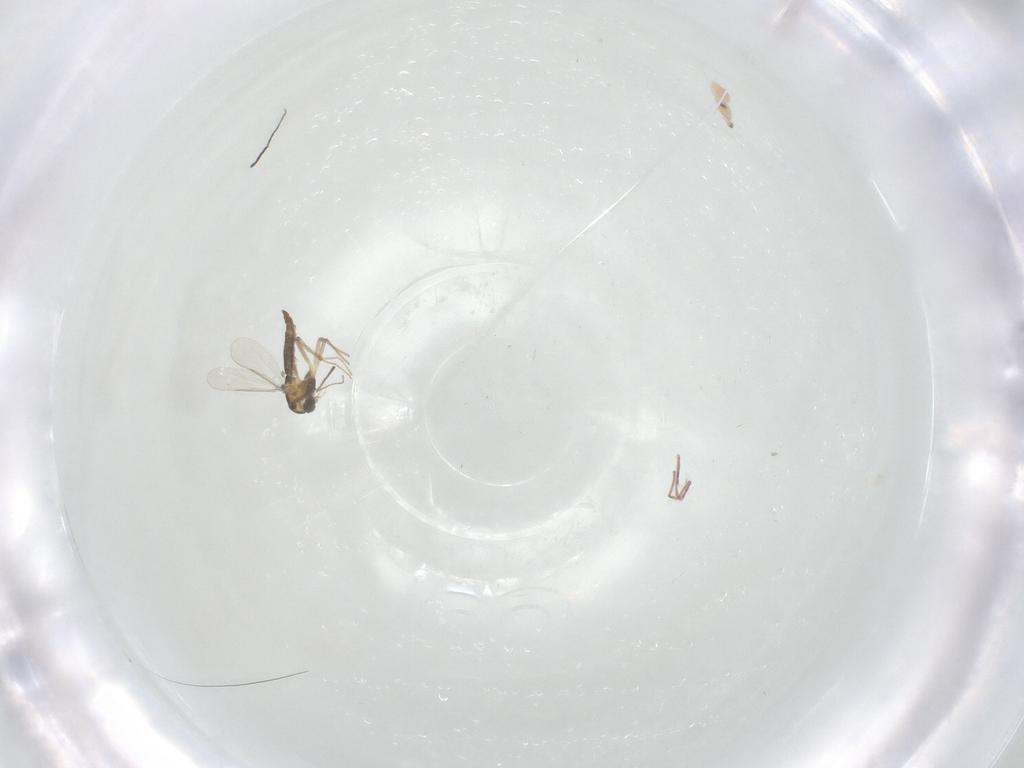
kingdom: Animalia
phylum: Arthropoda
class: Insecta
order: Diptera
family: Chironomidae
